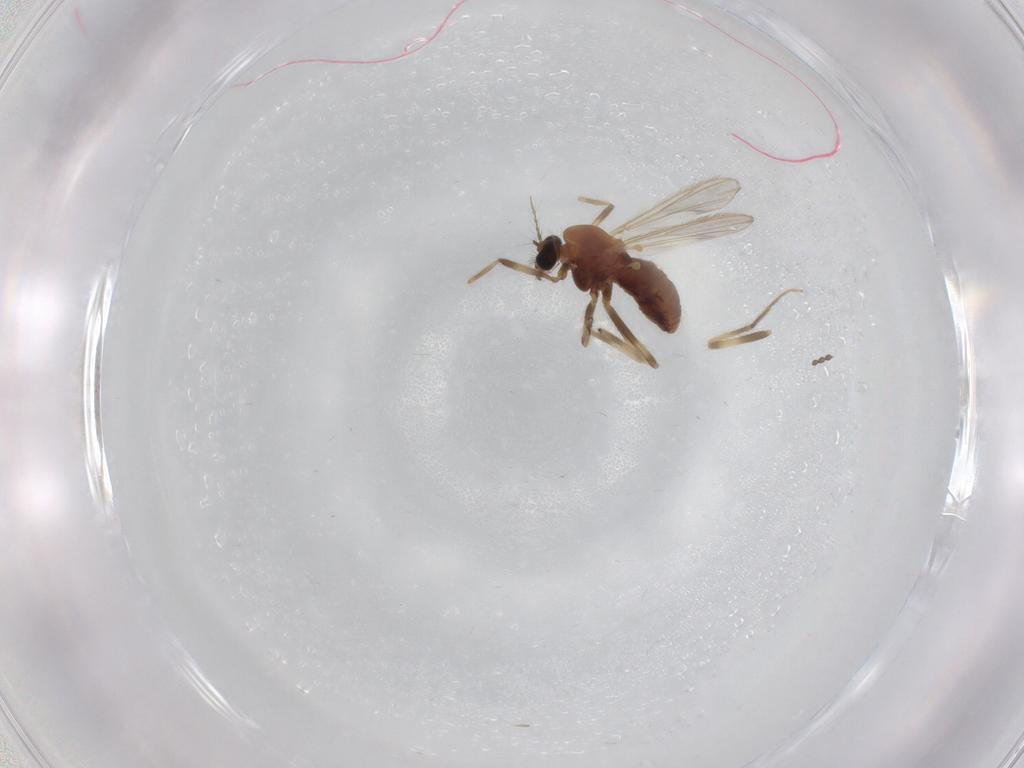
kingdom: Animalia
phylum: Arthropoda
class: Insecta
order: Diptera
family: Chironomidae
